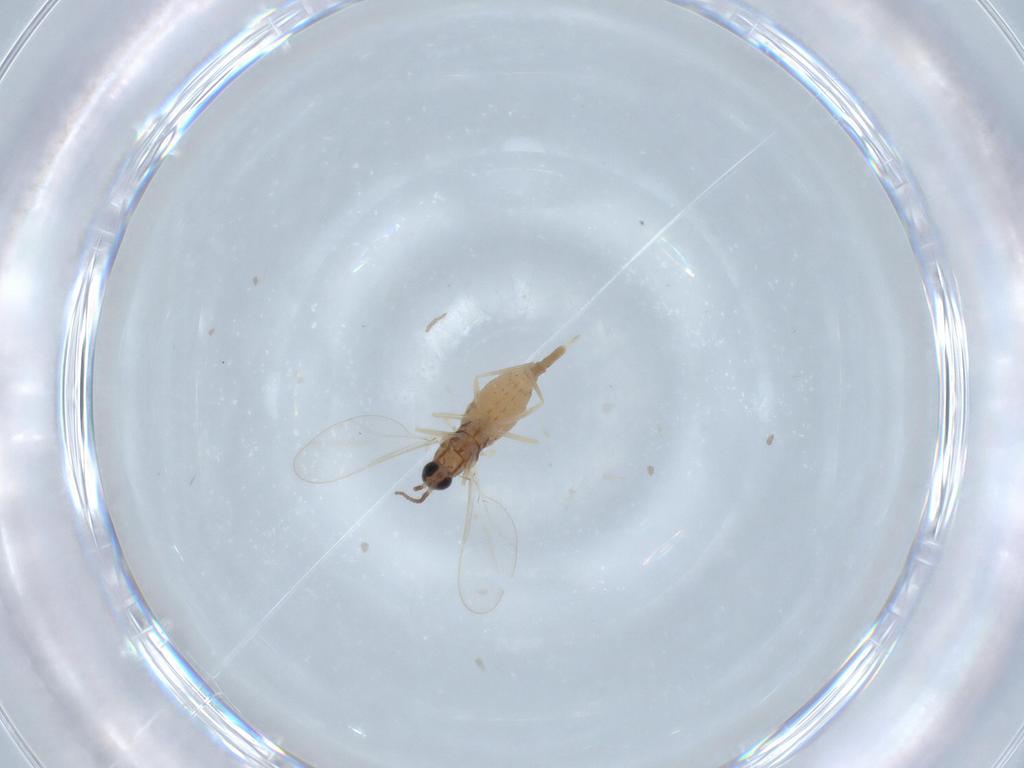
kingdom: Animalia
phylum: Arthropoda
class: Insecta
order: Diptera
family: Cecidomyiidae
